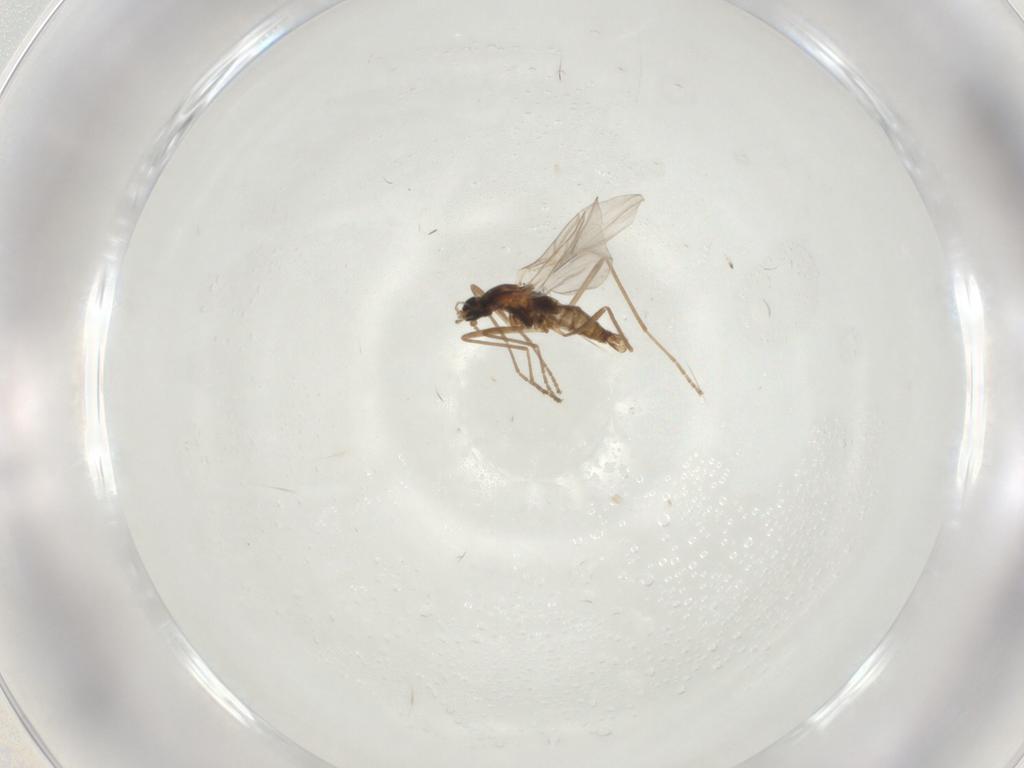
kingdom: Animalia
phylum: Arthropoda
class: Insecta
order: Diptera
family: Cecidomyiidae
